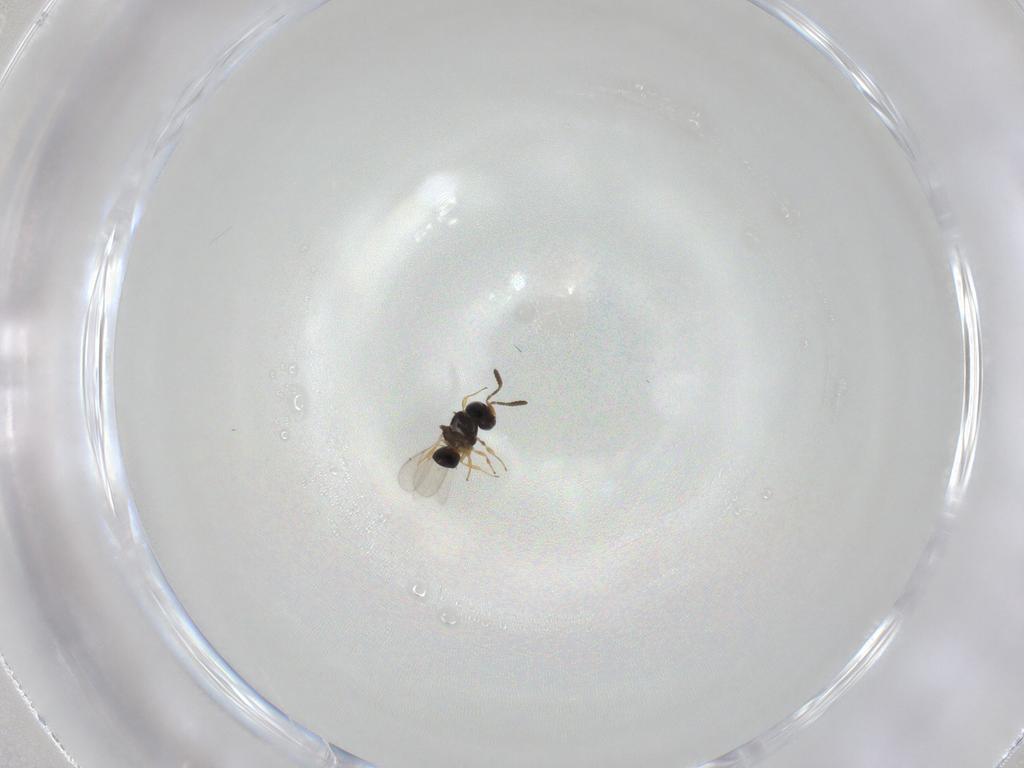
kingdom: Animalia
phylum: Arthropoda
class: Insecta
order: Hymenoptera
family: Scelionidae
